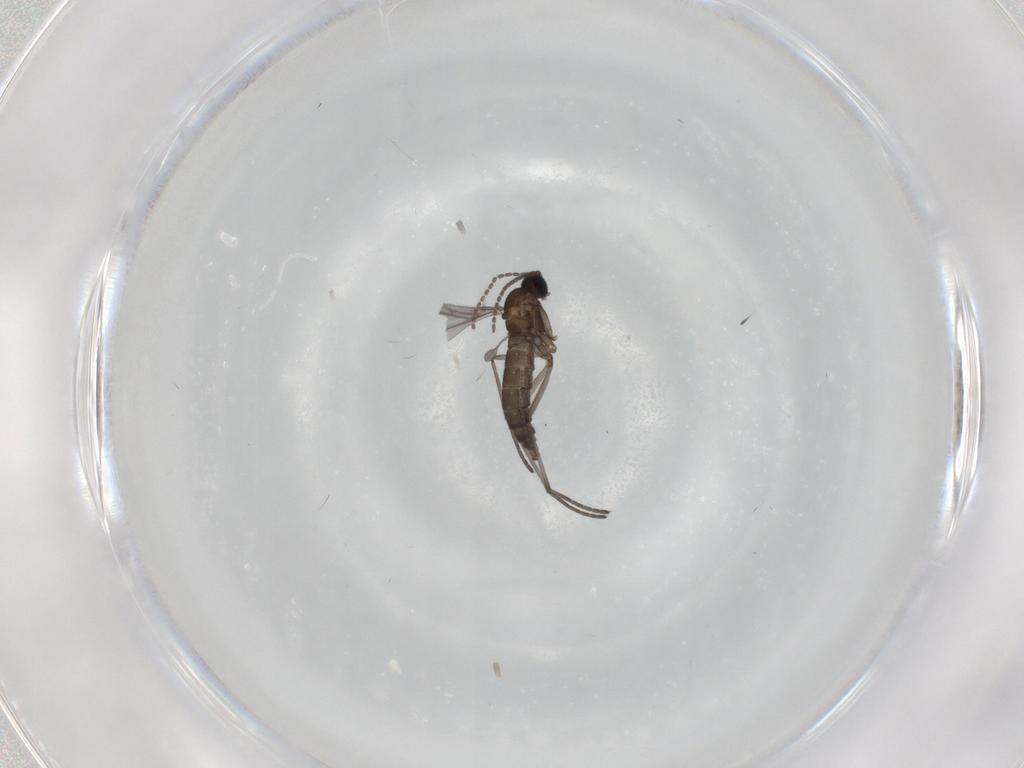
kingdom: Animalia
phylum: Arthropoda
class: Insecta
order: Diptera
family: Sciaridae
